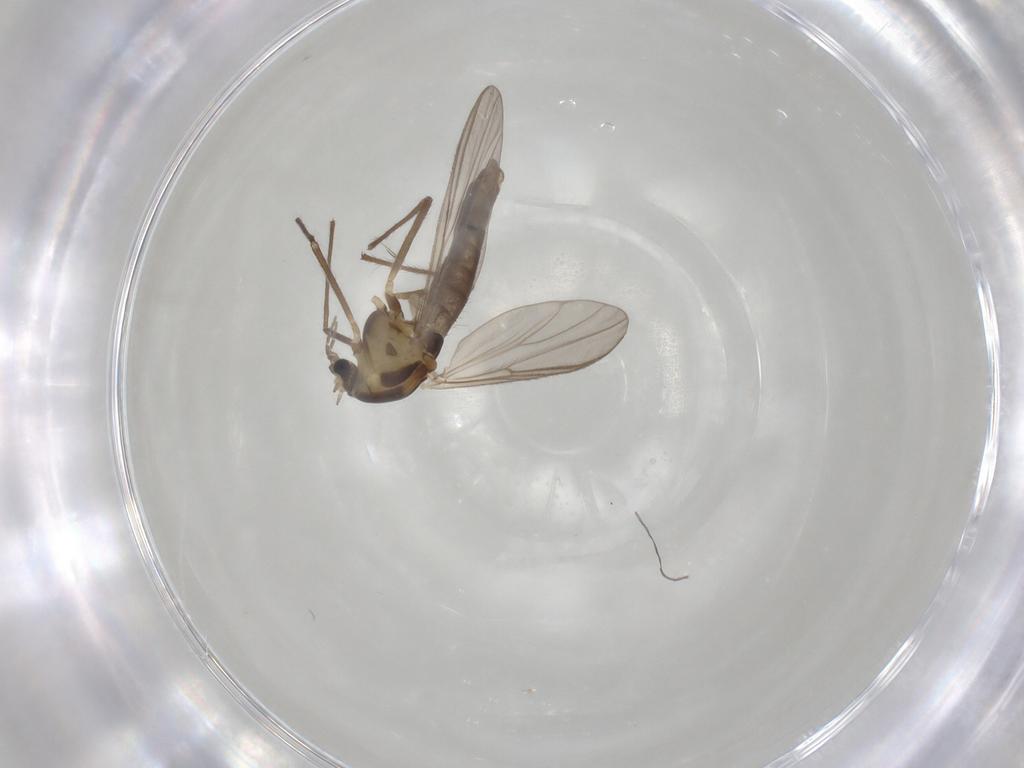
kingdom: Animalia
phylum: Arthropoda
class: Insecta
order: Diptera
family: Chironomidae
